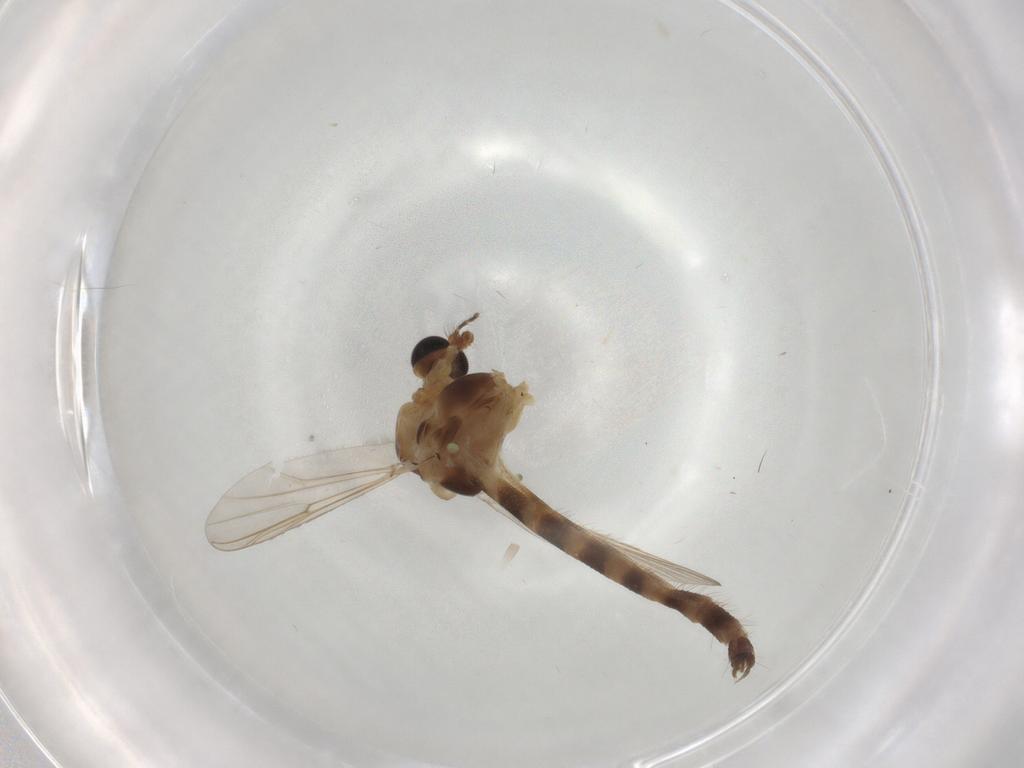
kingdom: Animalia
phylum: Arthropoda
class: Insecta
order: Diptera
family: Chironomidae
